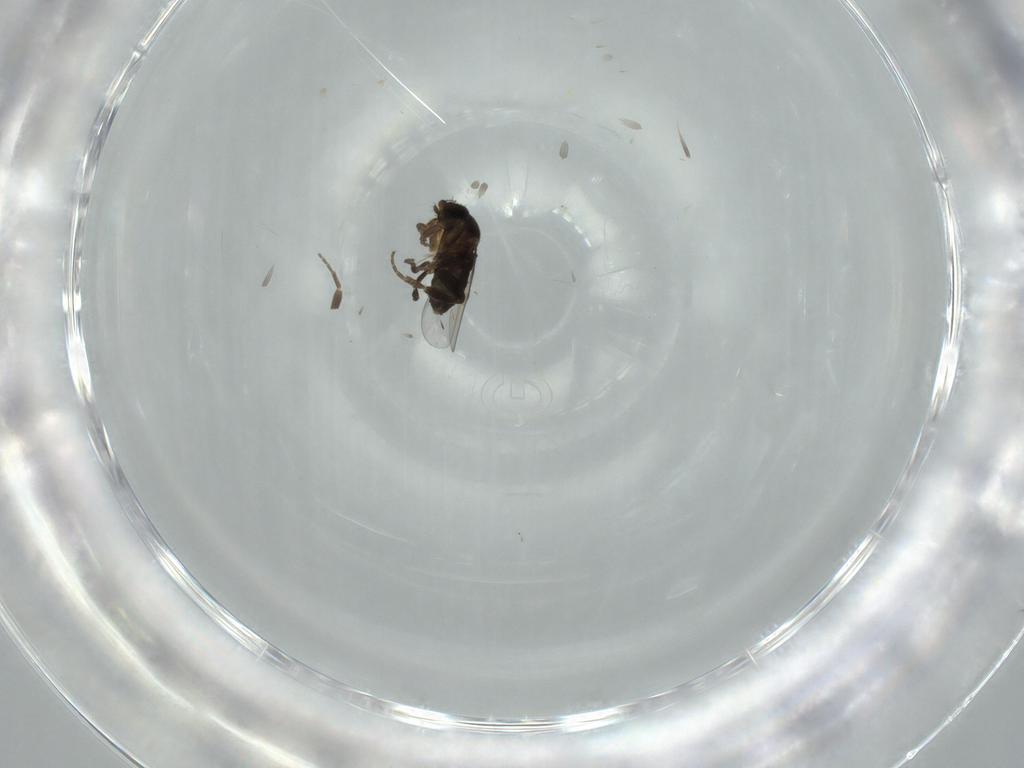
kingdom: Animalia
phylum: Arthropoda
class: Insecta
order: Diptera
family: Phoridae
